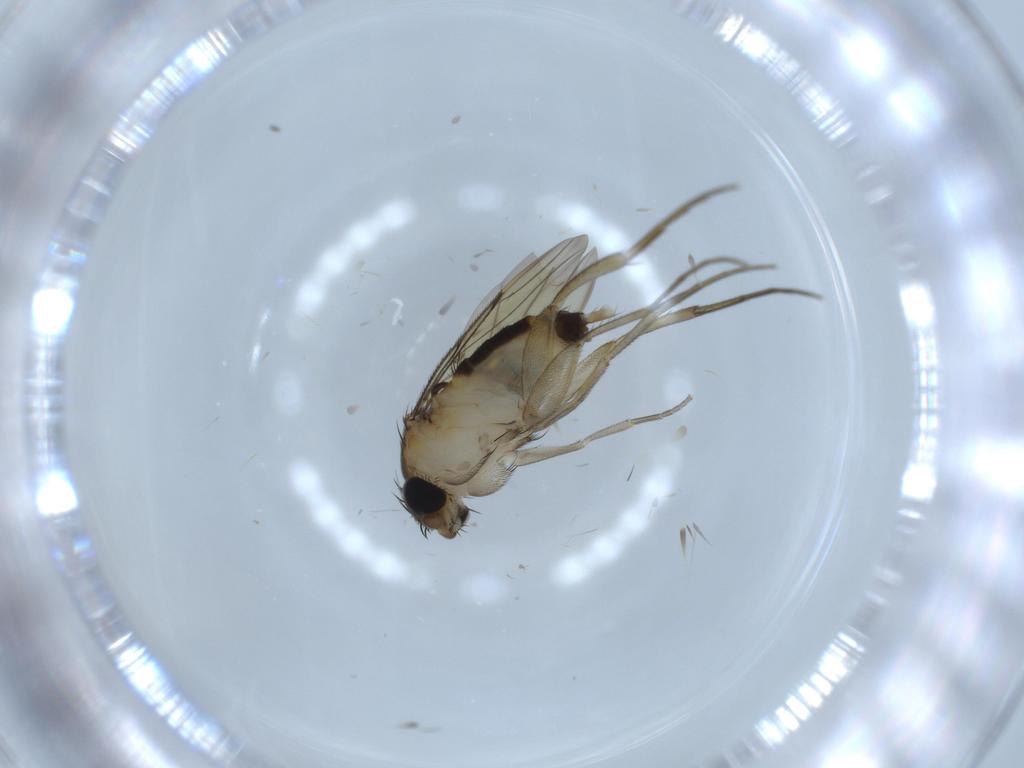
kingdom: Animalia
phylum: Arthropoda
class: Insecta
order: Diptera
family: Phoridae
